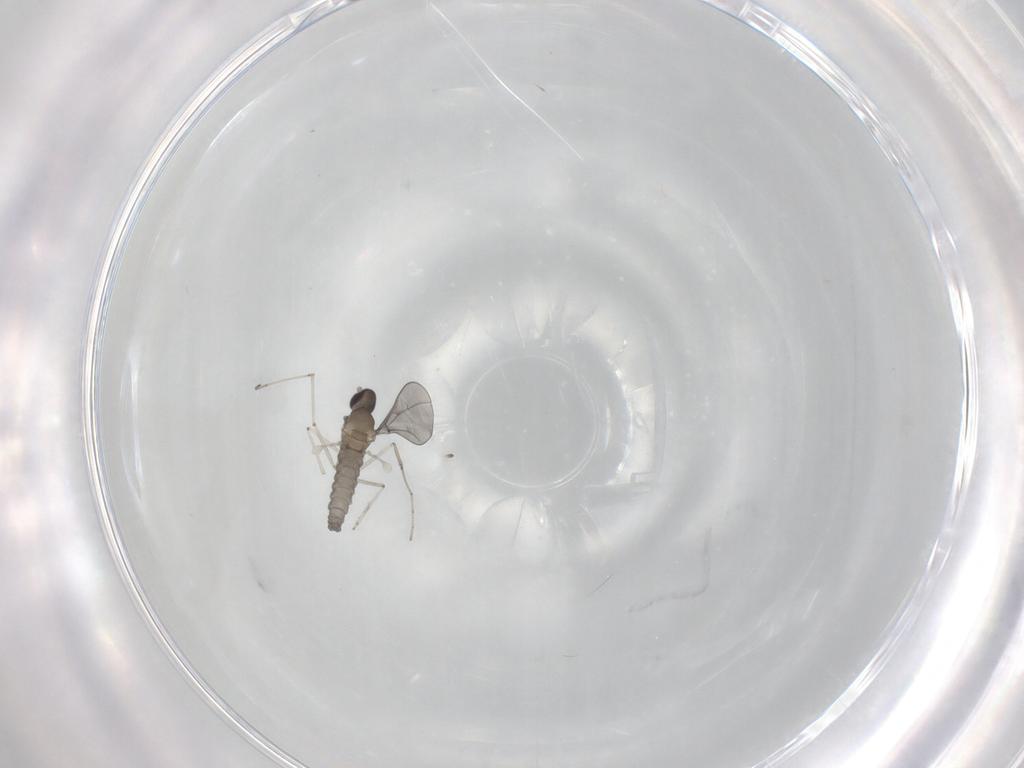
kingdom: Animalia
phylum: Arthropoda
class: Insecta
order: Diptera
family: Cecidomyiidae
